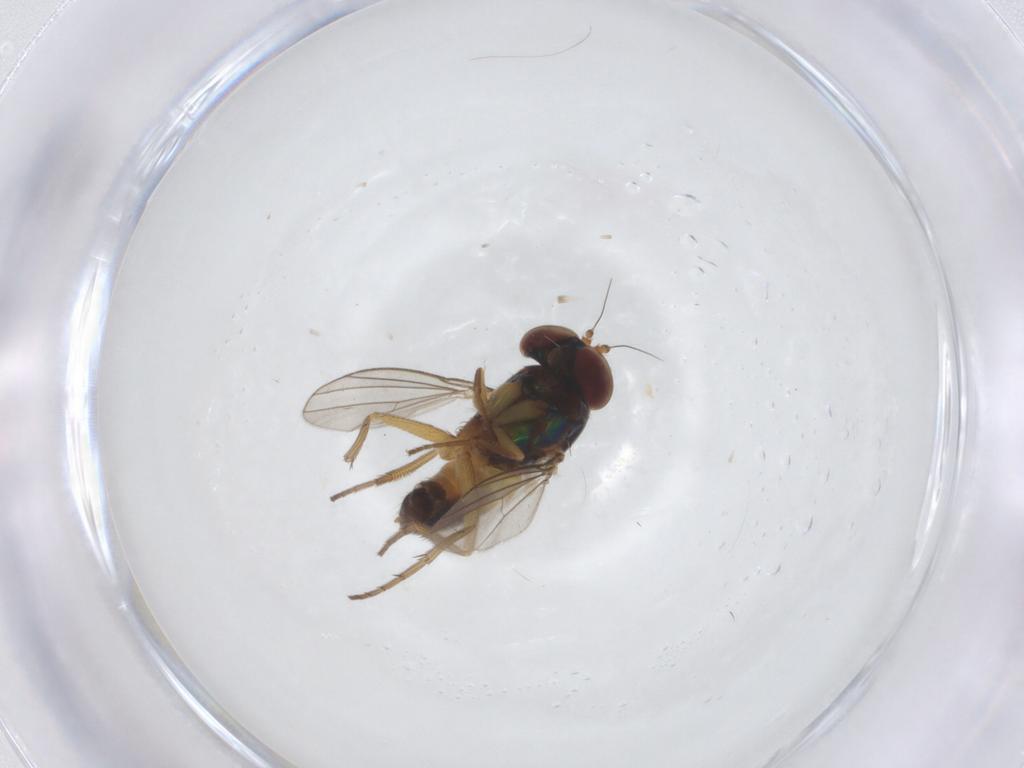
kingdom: Animalia
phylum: Arthropoda
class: Insecta
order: Diptera
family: Dolichopodidae
